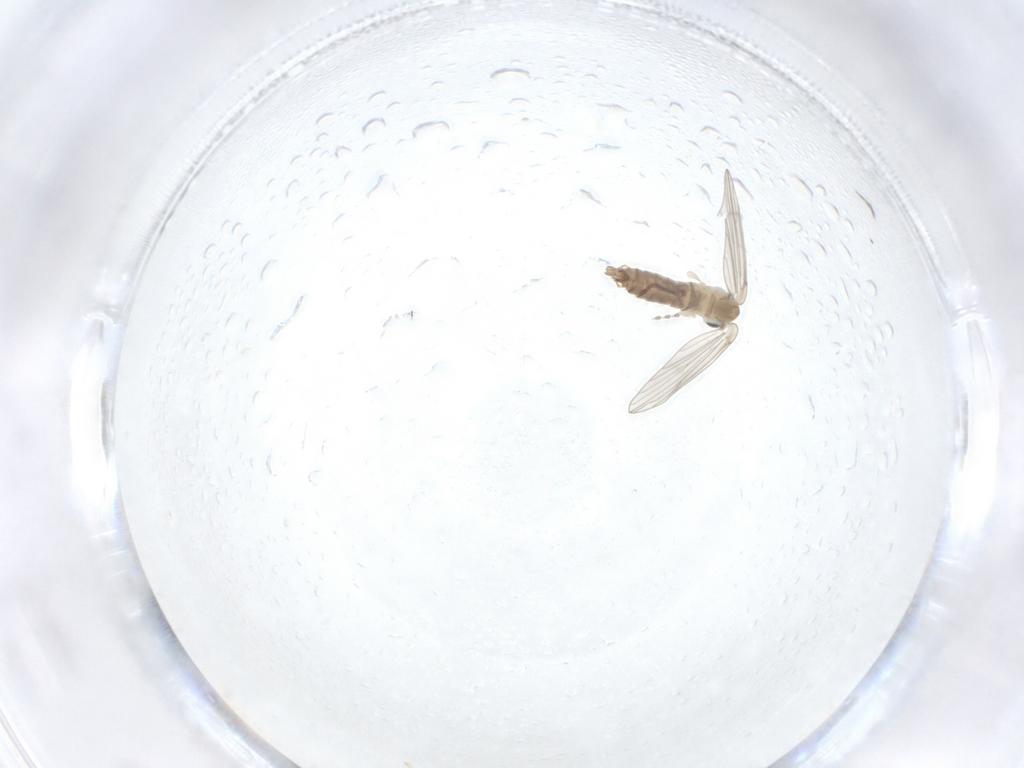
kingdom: Animalia
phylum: Arthropoda
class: Insecta
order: Diptera
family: Psychodidae
